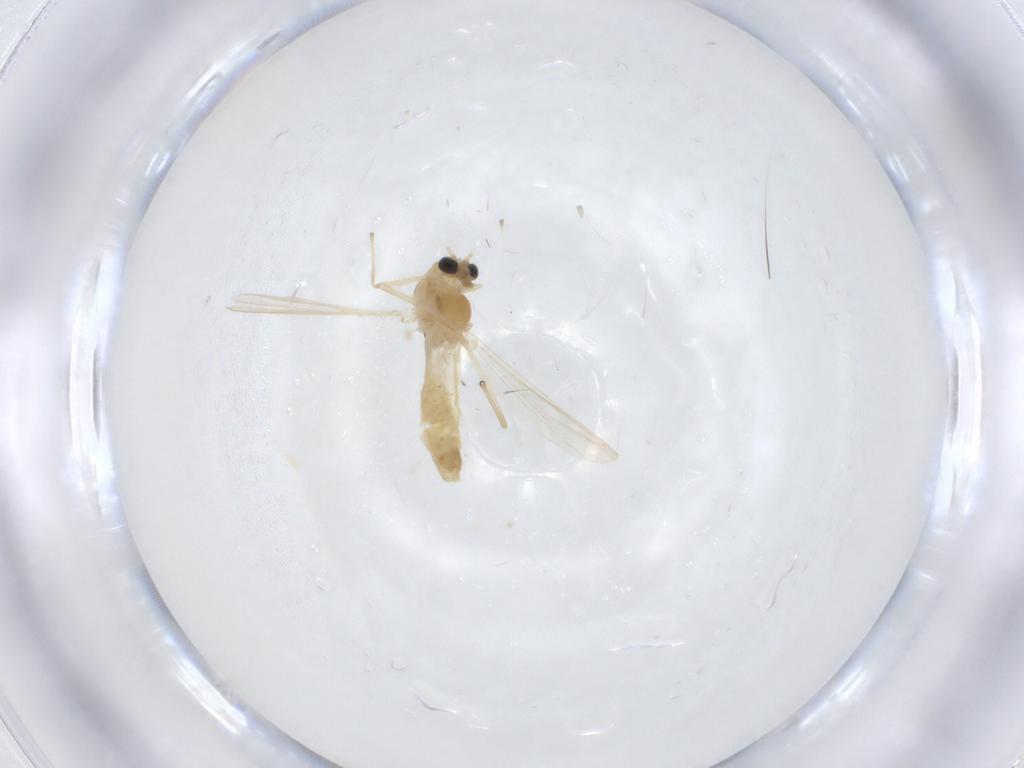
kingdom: Animalia
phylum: Arthropoda
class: Insecta
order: Diptera
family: Chironomidae
